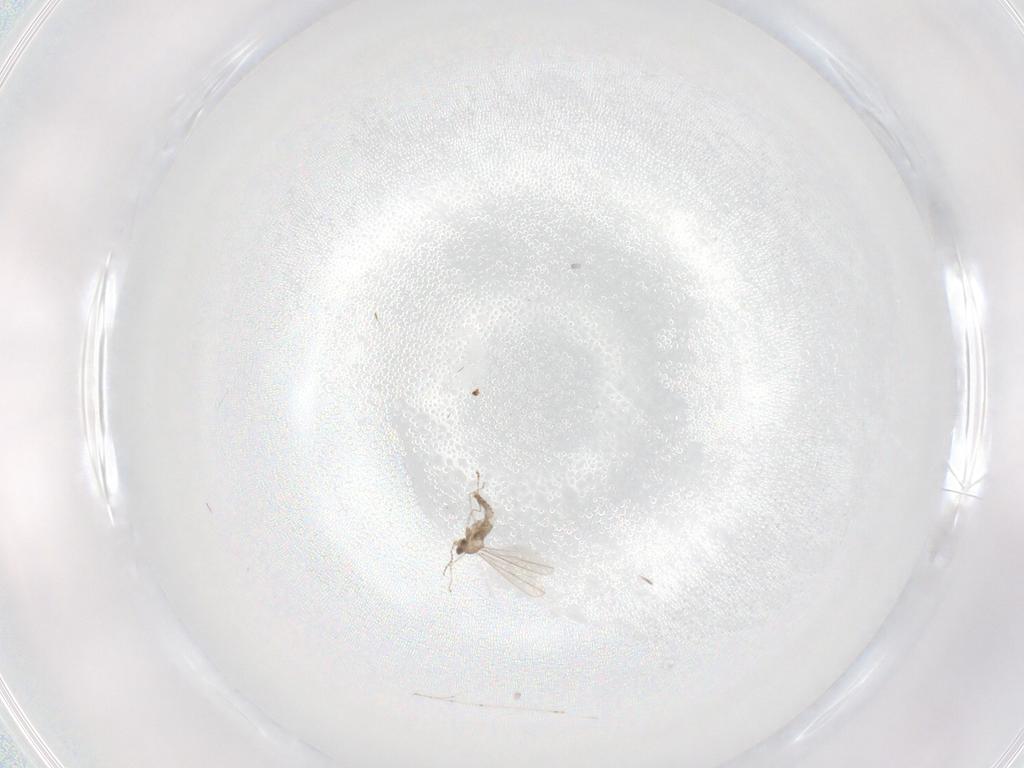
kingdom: Animalia
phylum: Arthropoda
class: Insecta
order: Diptera
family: Cecidomyiidae
